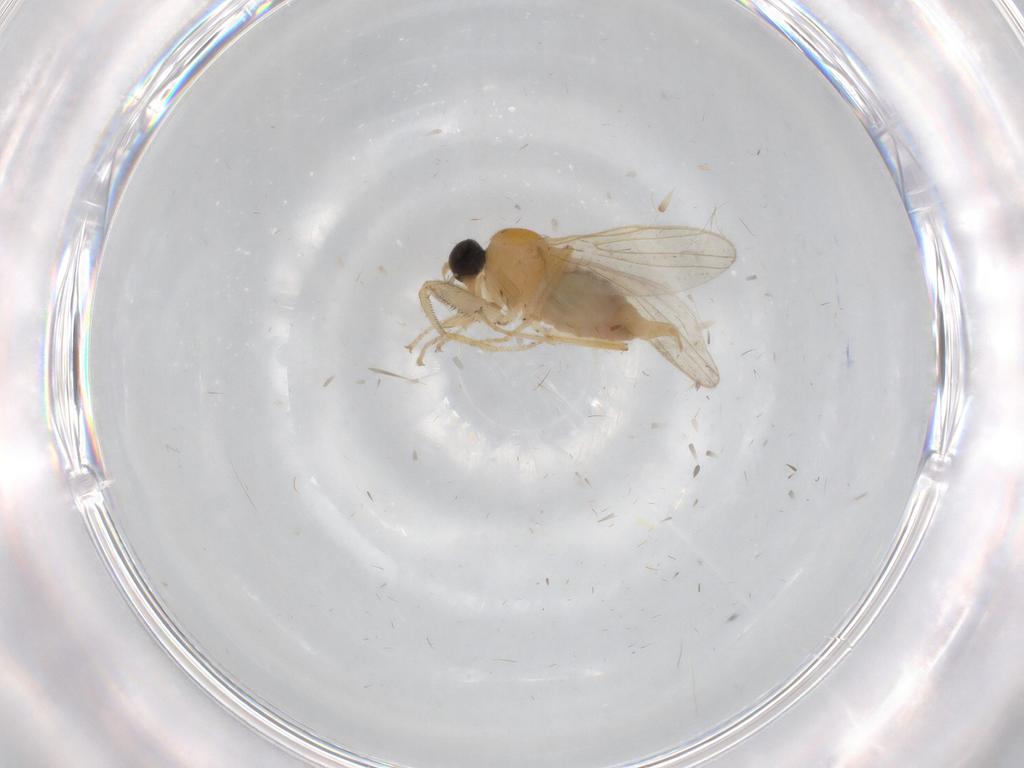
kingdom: Animalia
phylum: Arthropoda
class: Insecta
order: Diptera
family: Hybotidae
